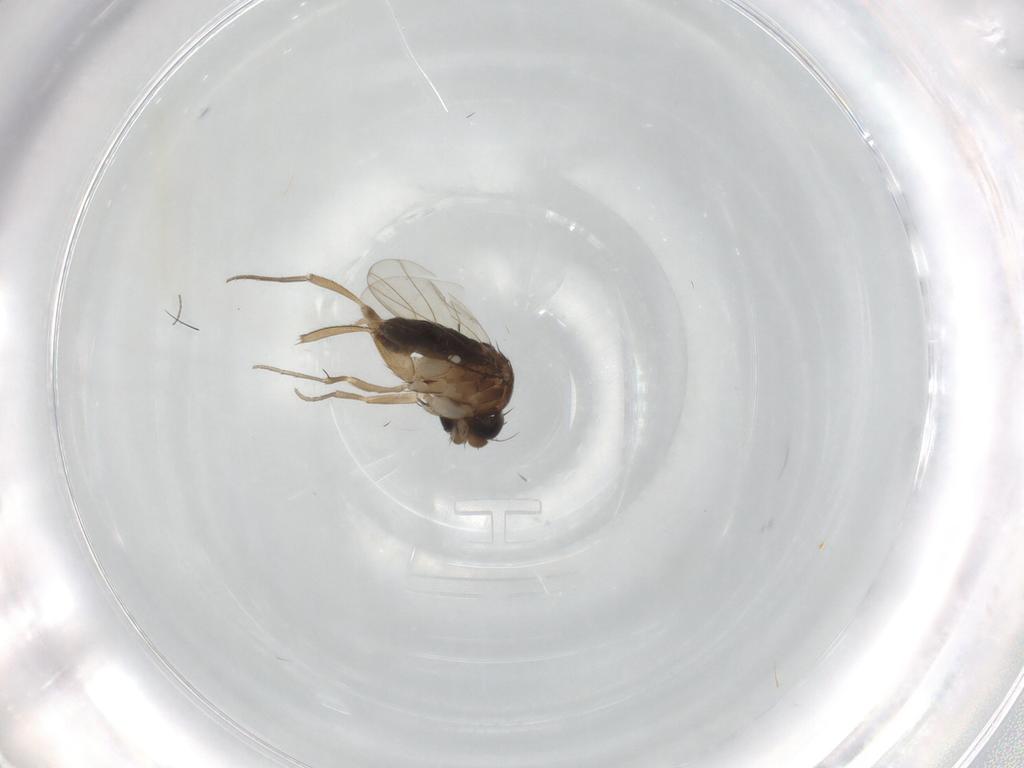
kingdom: Animalia
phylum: Arthropoda
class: Insecta
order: Diptera
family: Phoridae
